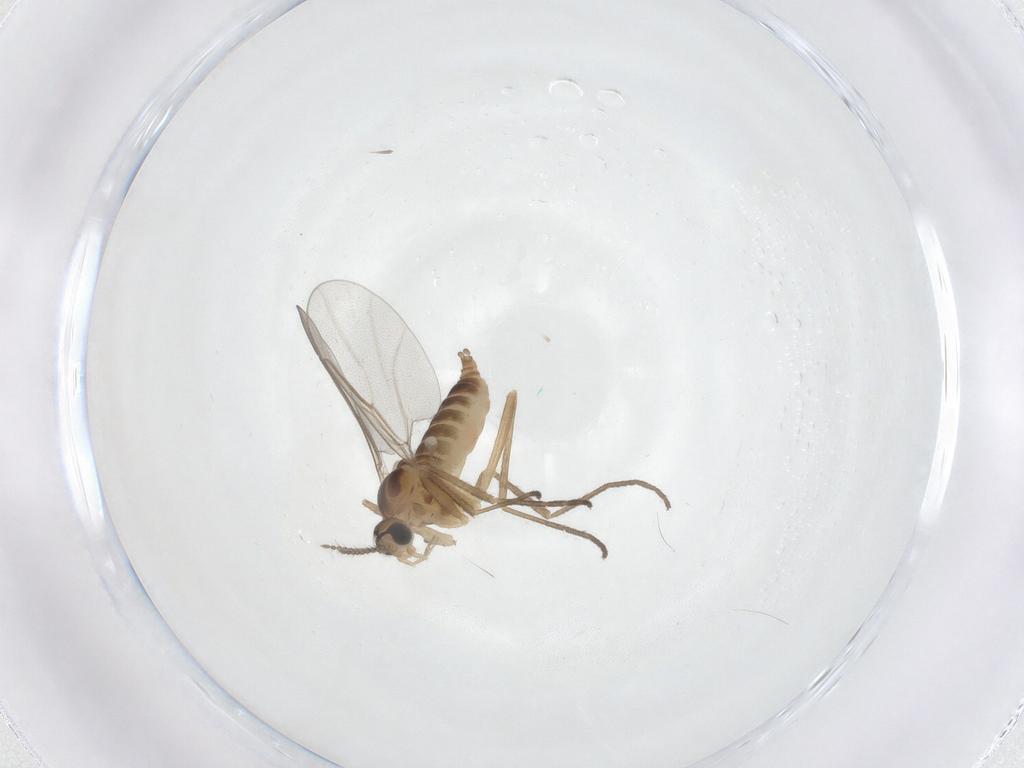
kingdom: Animalia
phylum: Arthropoda
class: Insecta
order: Diptera
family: Cecidomyiidae
